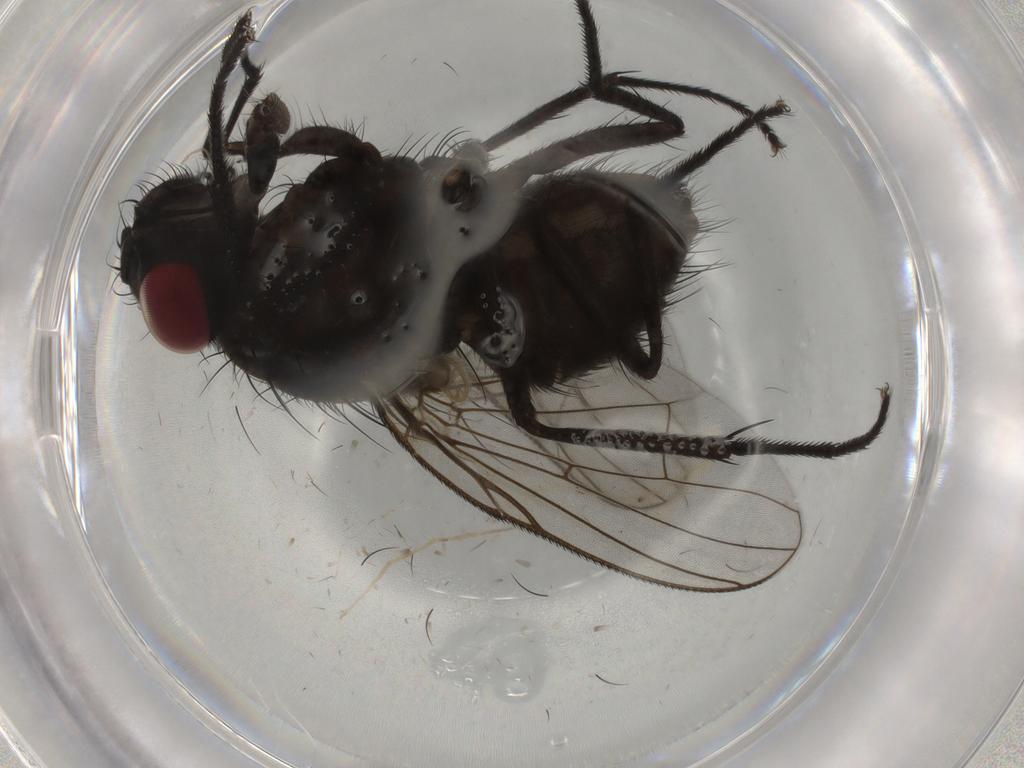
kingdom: Animalia
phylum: Arthropoda
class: Insecta
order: Diptera
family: Muscidae
